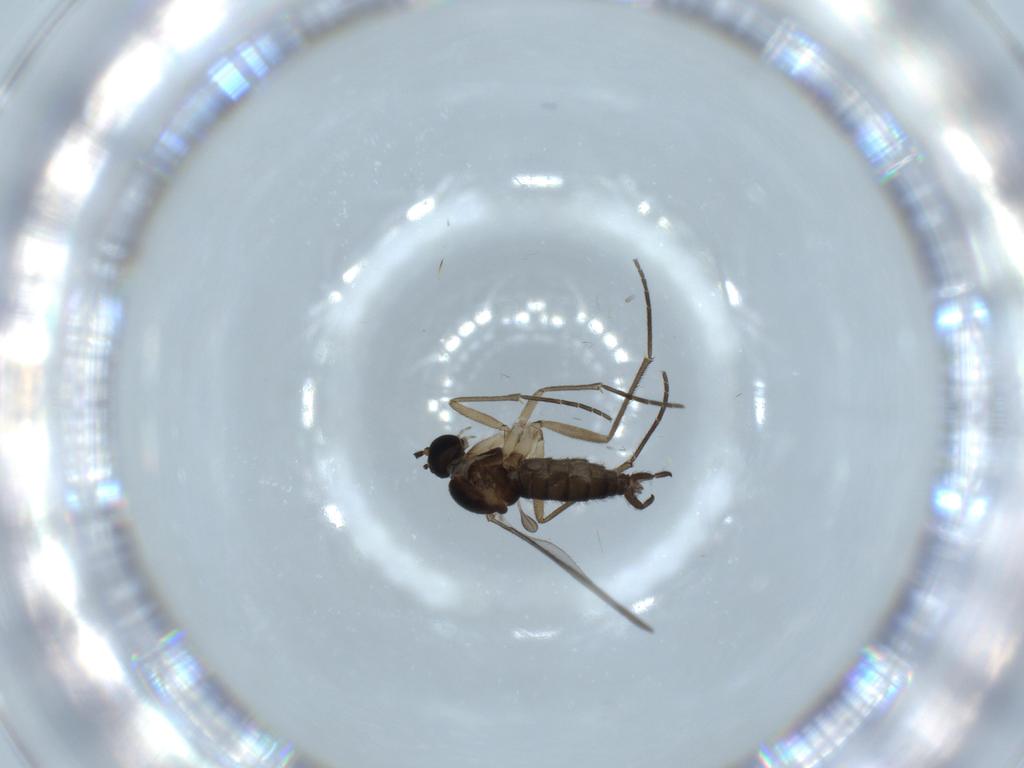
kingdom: Animalia
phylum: Arthropoda
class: Insecta
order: Diptera
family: Sciaridae
